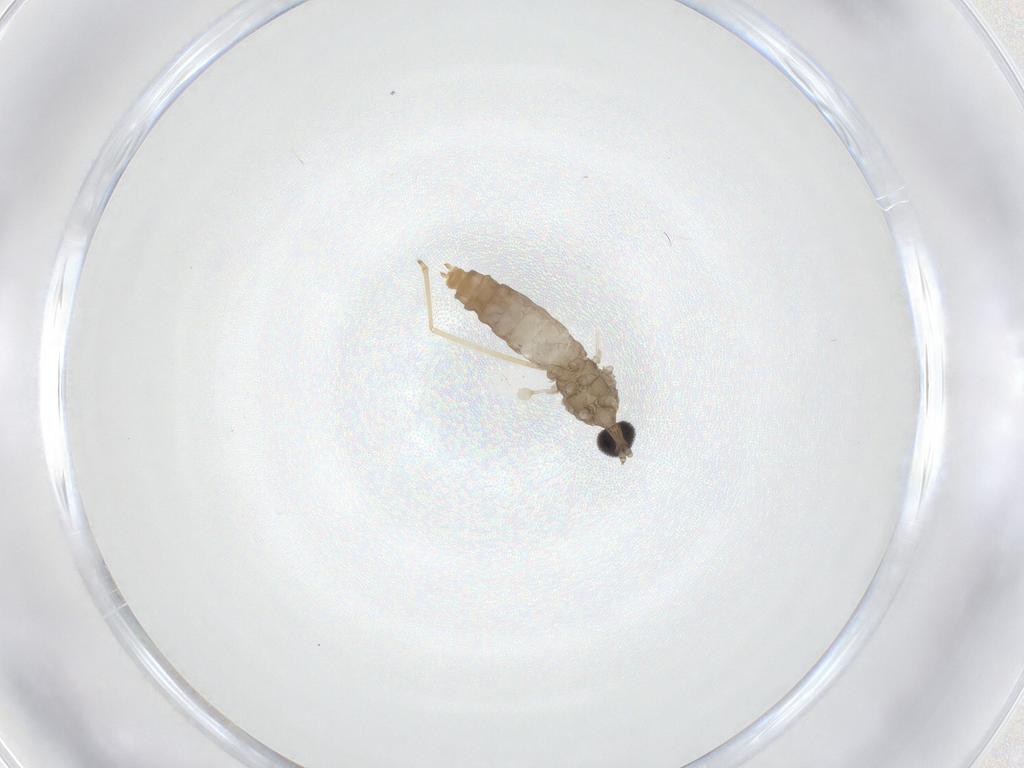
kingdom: Animalia
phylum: Arthropoda
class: Insecta
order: Diptera
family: Cecidomyiidae
